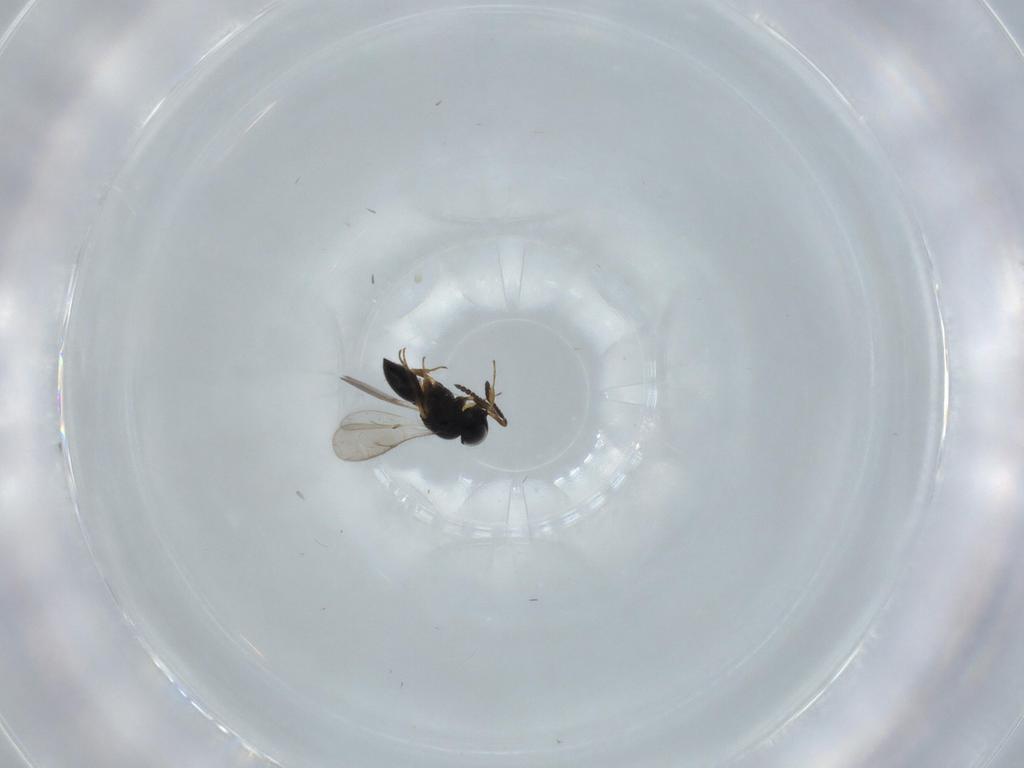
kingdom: Animalia
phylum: Arthropoda
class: Insecta
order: Hymenoptera
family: Scelionidae
